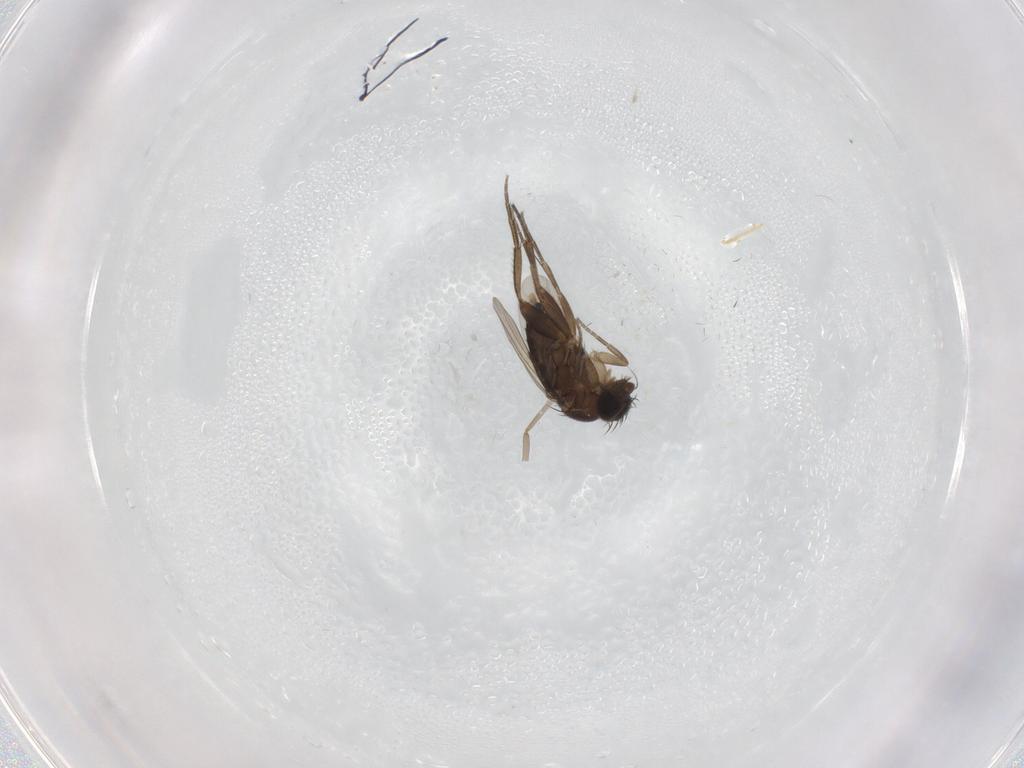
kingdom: Animalia
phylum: Arthropoda
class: Insecta
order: Diptera
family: Phoridae
